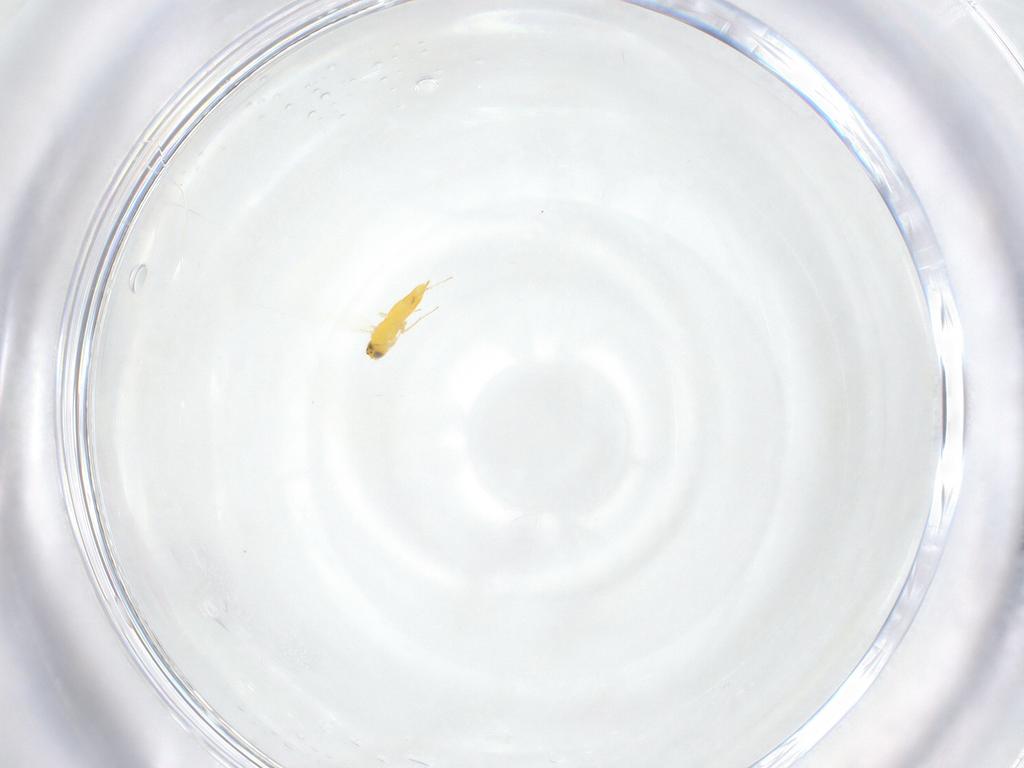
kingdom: Animalia
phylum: Arthropoda
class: Insecta
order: Hymenoptera
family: Aphelinidae
